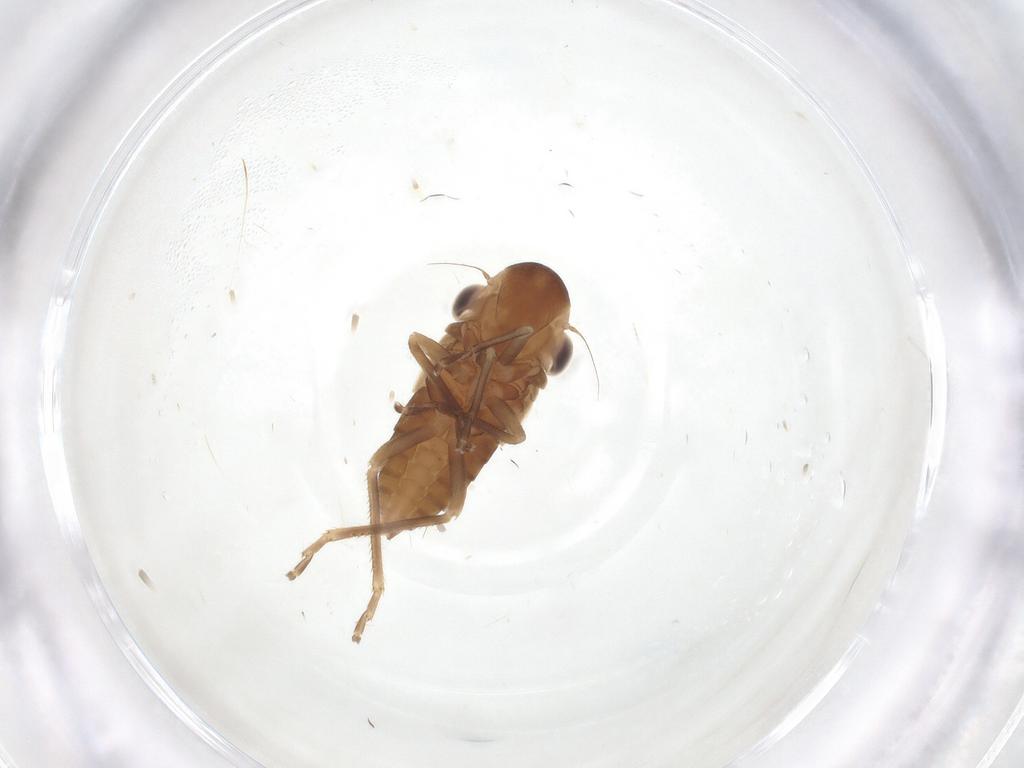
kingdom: Animalia
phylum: Arthropoda
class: Insecta
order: Hemiptera
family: Cicadellidae
